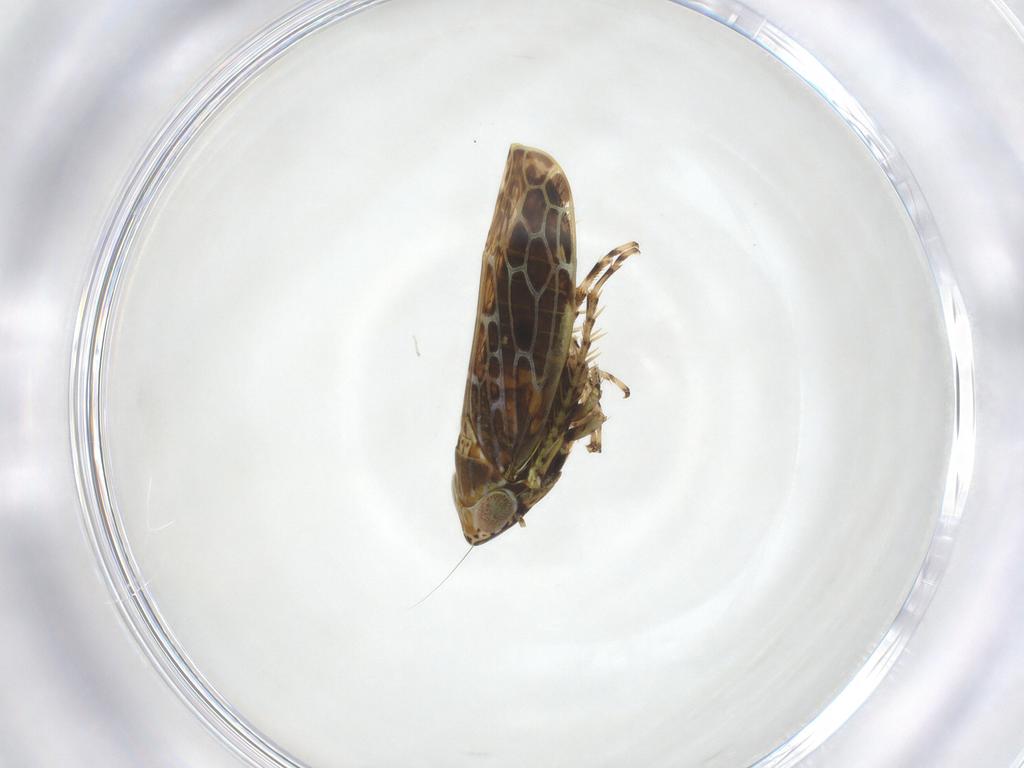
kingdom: Animalia
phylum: Arthropoda
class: Insecta
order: Hemiptera
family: Cicadellidae
